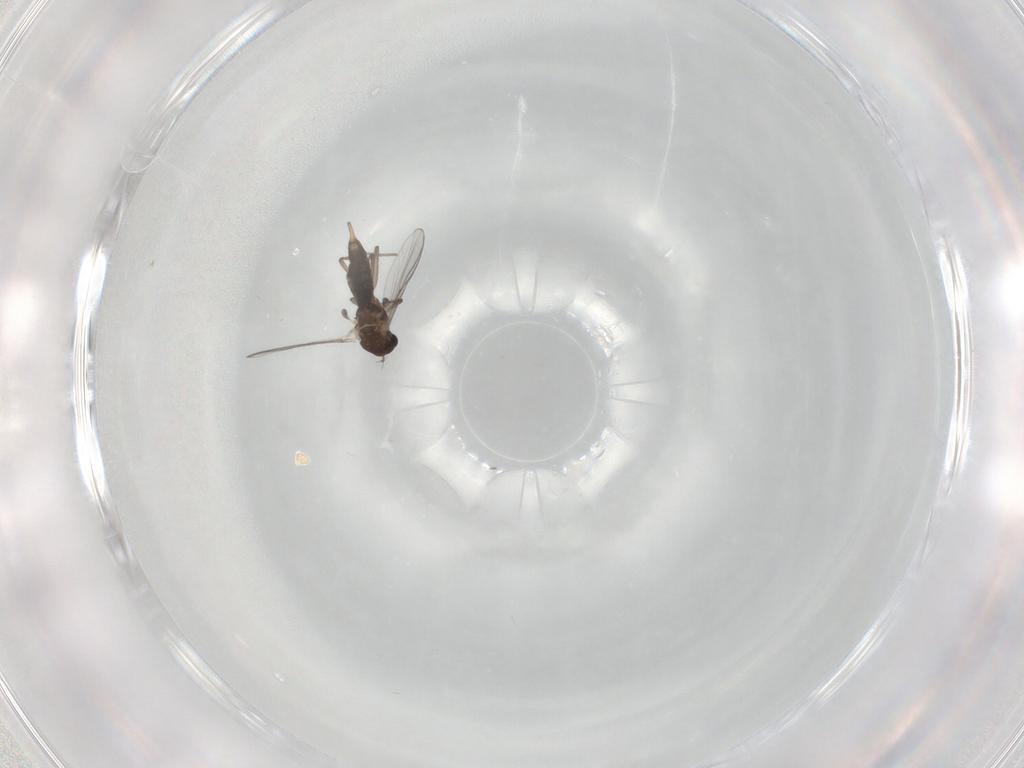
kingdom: Animalia
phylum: Arthropoda
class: Insecta
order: Diptera
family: Chironomidae
